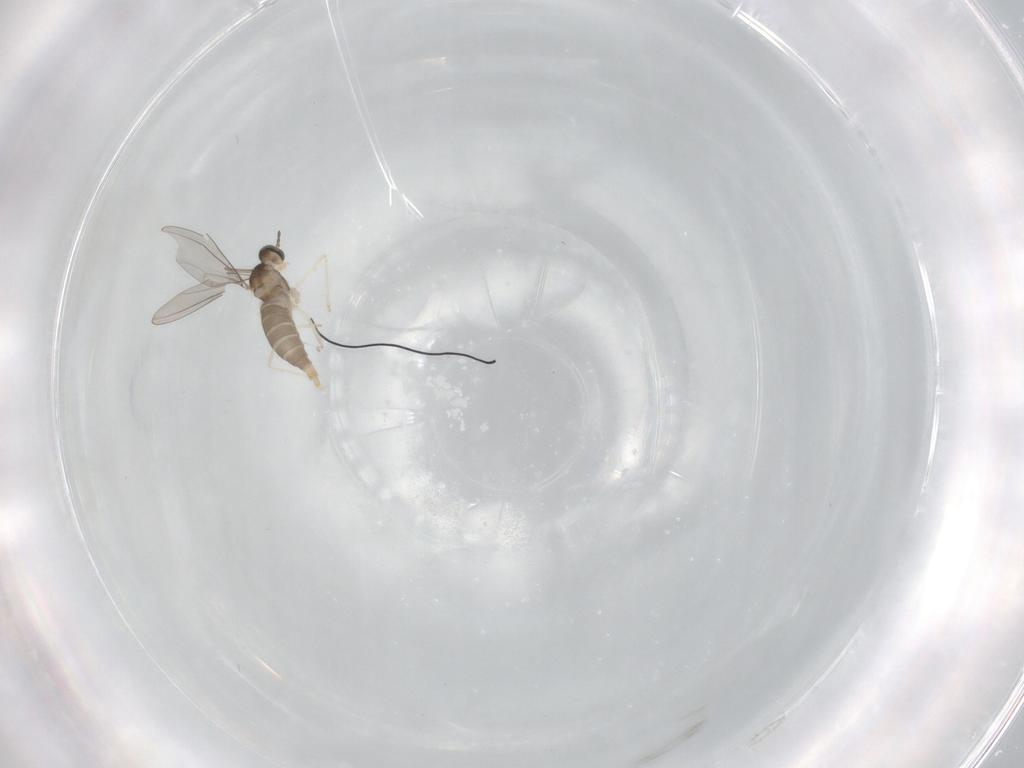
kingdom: Animalia
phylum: Arthropoda
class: Insecta
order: Diptera
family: Cecidomyiidae
